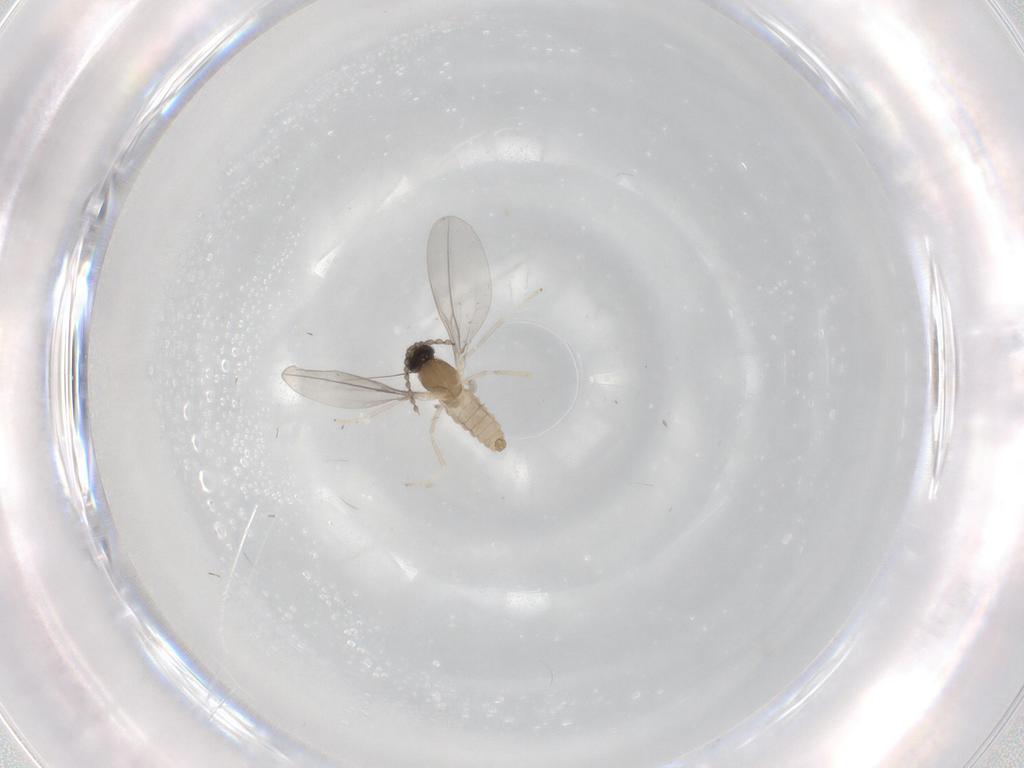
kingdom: Animalia
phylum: Arthropoda
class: Insecta
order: Diptera
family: Cecidomyiidae
